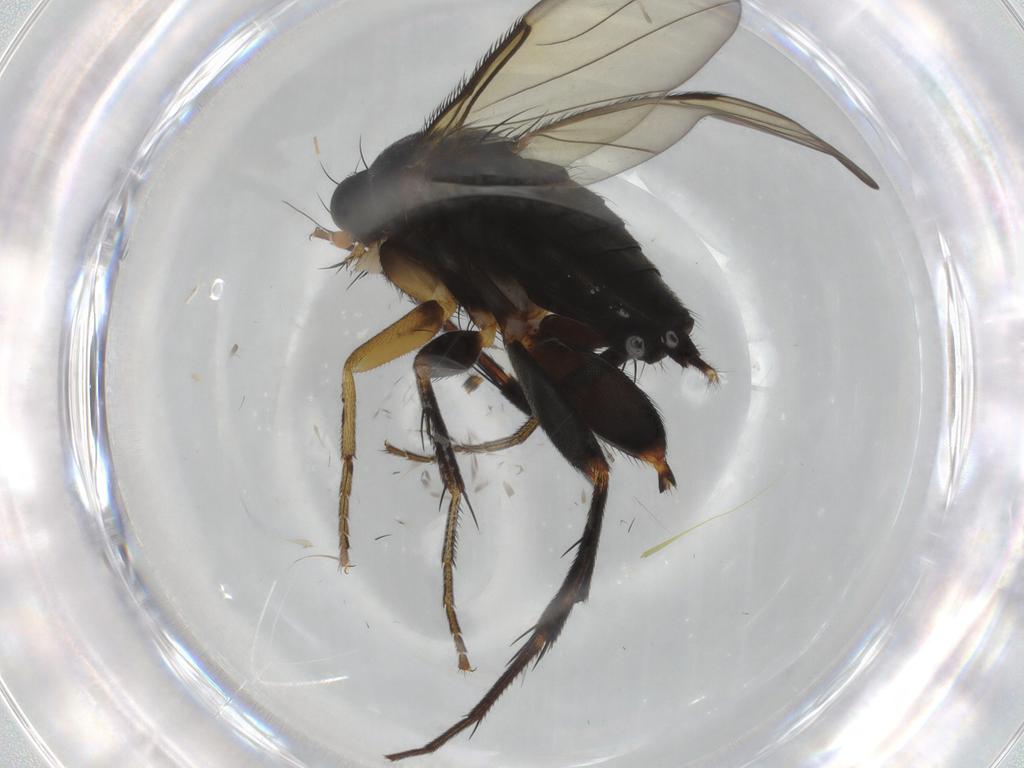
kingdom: Animalia
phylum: Arthropoda
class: Insecta
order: Diptera
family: Phoridae
